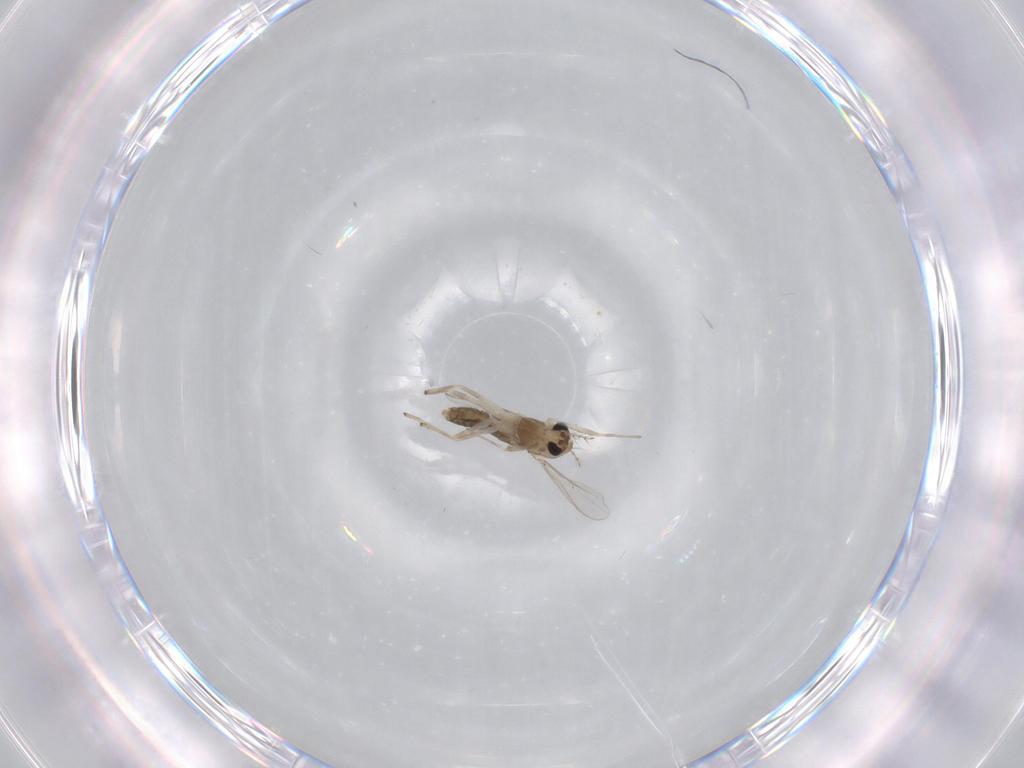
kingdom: Animalia
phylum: Arthropoda
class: Insecta
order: Diptera
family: Chironomidae
